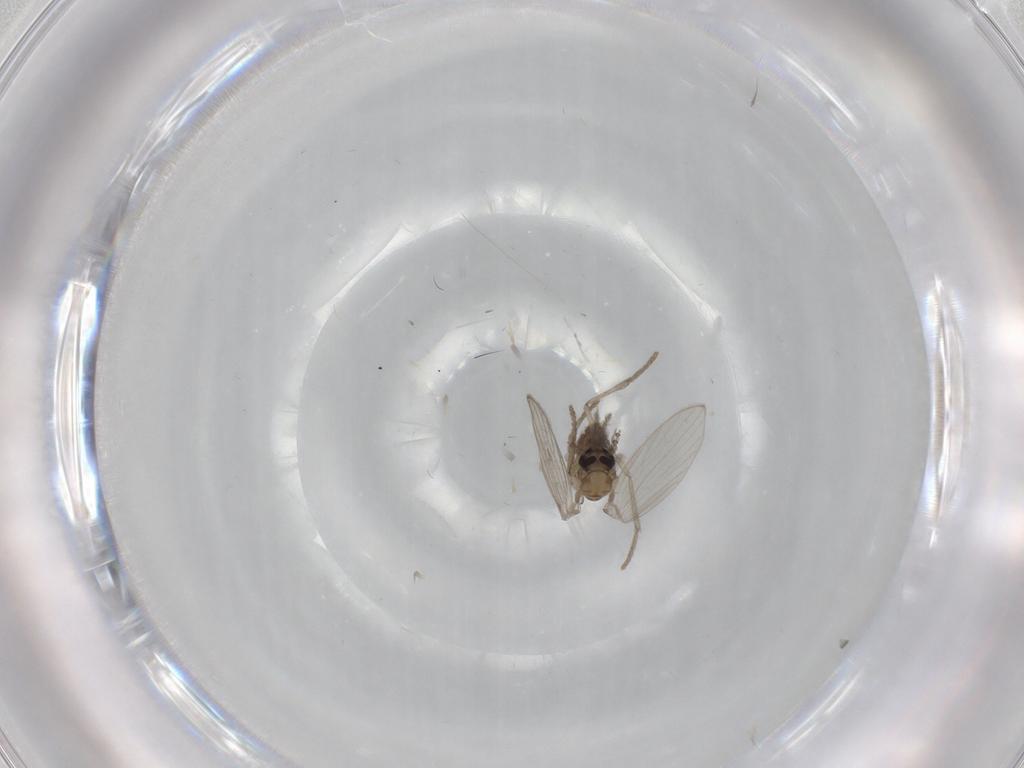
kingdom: Animalia
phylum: Arthropoda
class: Insecta
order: Diptera
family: Psychodidae
